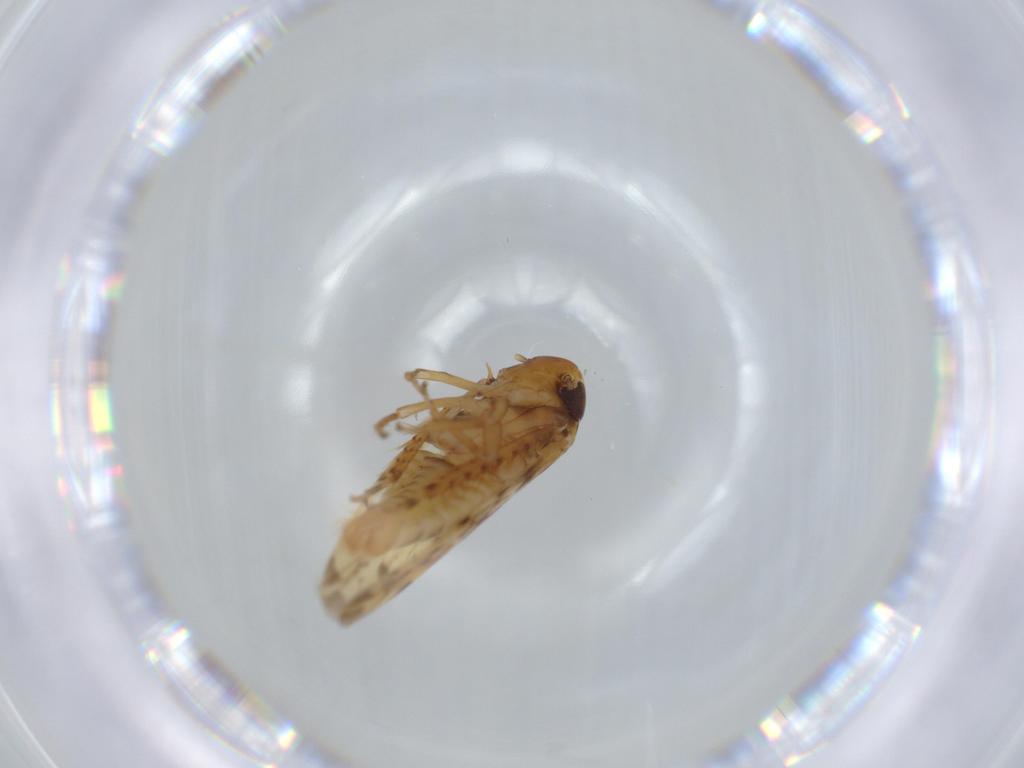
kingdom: Animalia
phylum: Arthropoda
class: Insecta
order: Hemiptera
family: Cicadellidae
